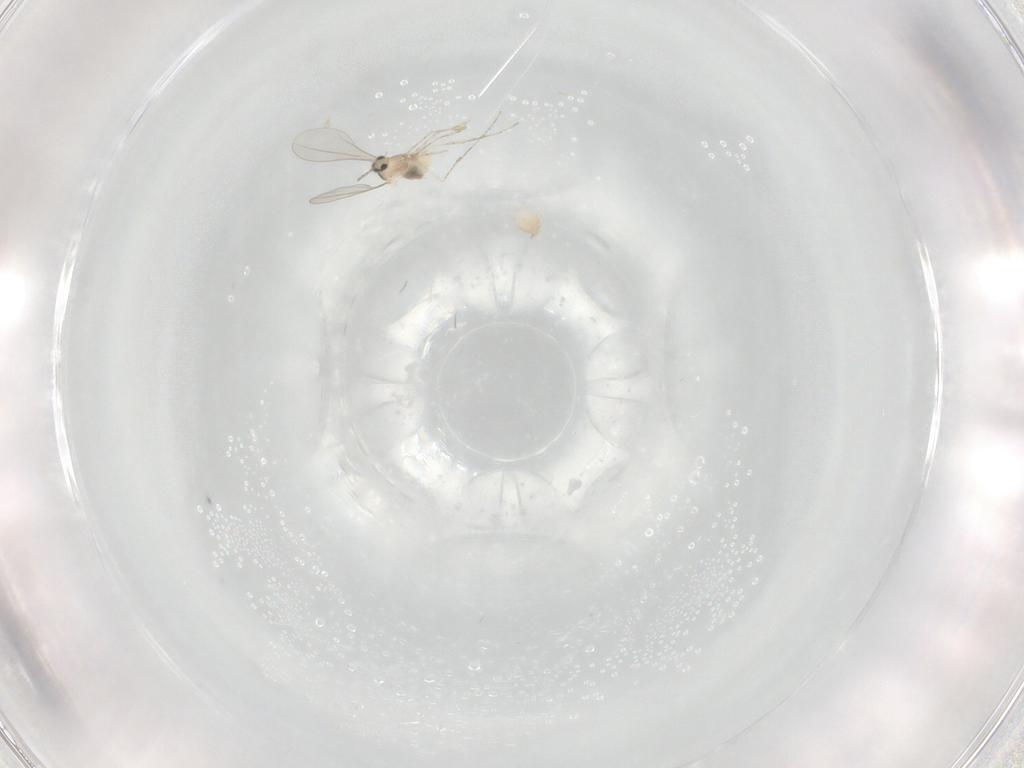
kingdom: Animalia
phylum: Arthropoda
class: Insecta
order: Diptera
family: Cecidomyiidae
